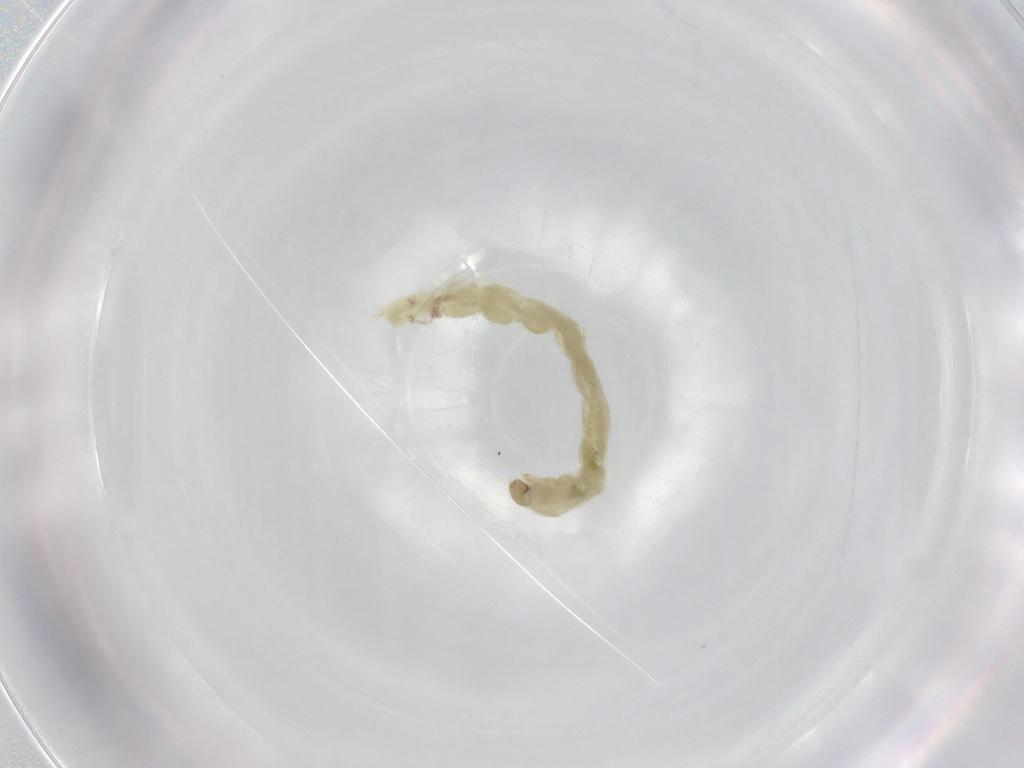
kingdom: Animalia
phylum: Arthropoda
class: Insecta
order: Diptera
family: Chironomidae
